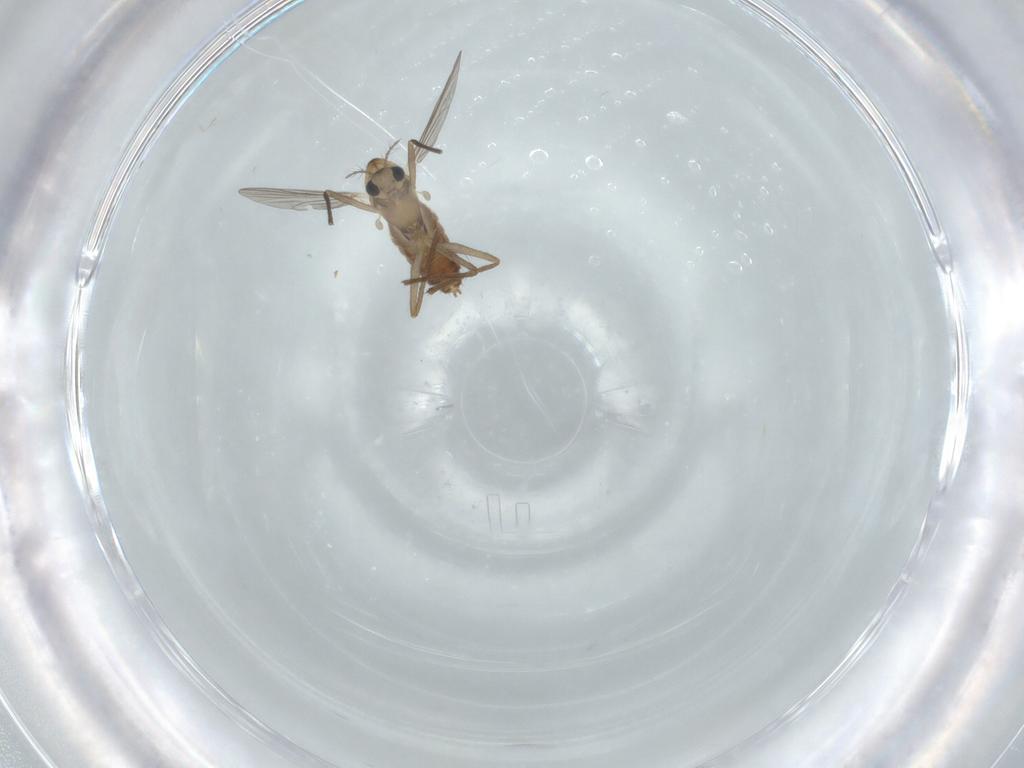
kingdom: Animalia
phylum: Arthropoda
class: Insecta
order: Diptera
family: Chironomidae
